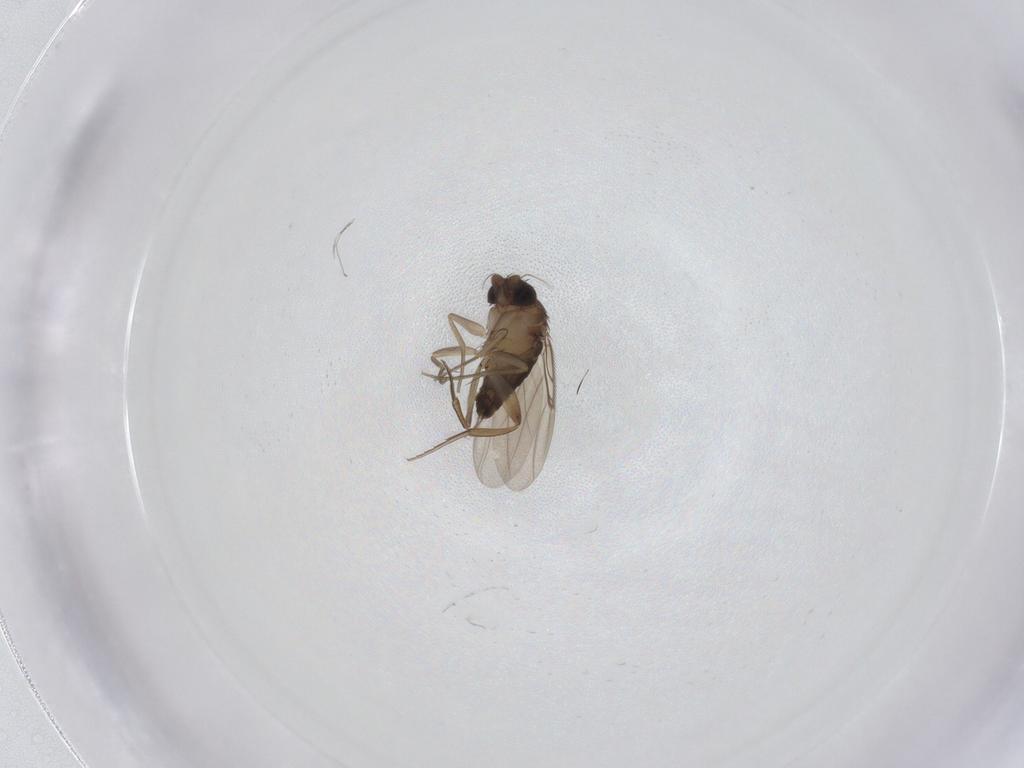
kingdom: Animalia
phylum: Arthropoda
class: Insecta
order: Diptera
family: Phoridae
